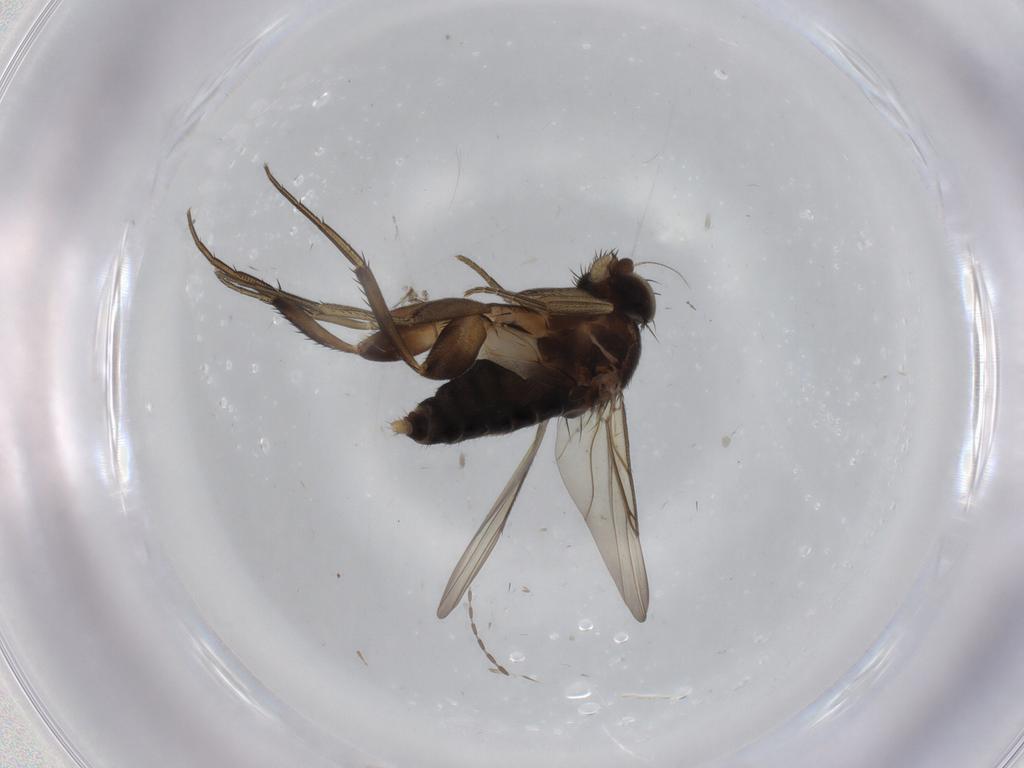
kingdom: Animalia
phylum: Arthropoda
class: Insecta
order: Diptera
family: Phoridae
